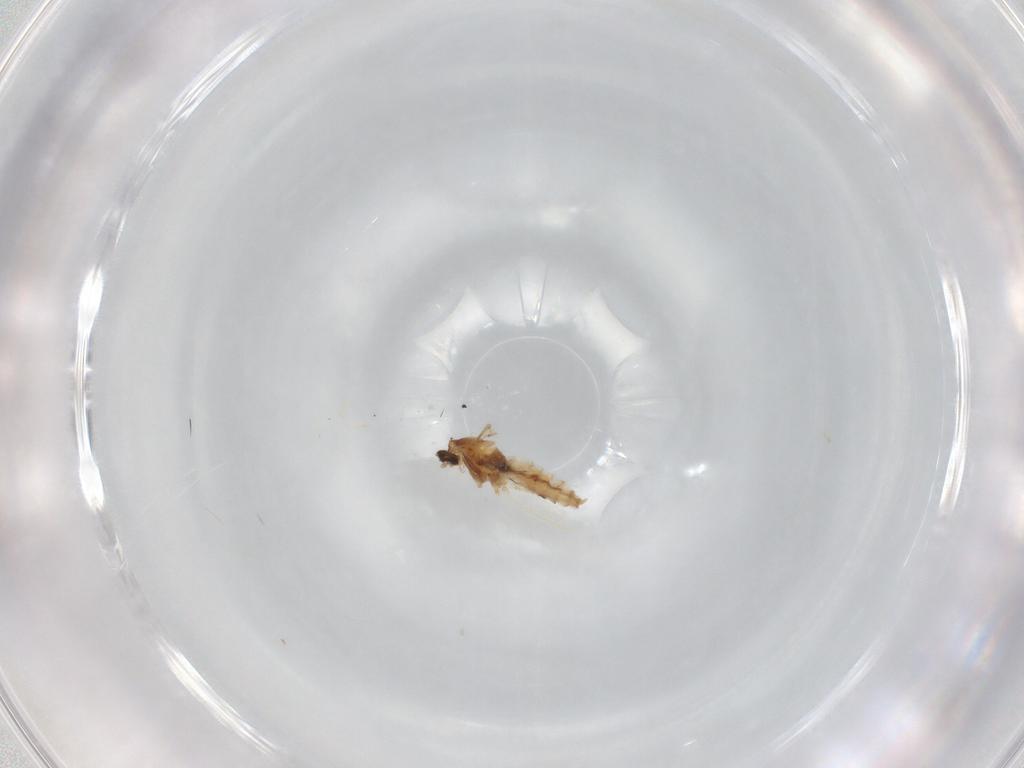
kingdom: Animalia
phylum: Arthropoda
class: Insecta
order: Diptera
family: Cecidomyiidae
